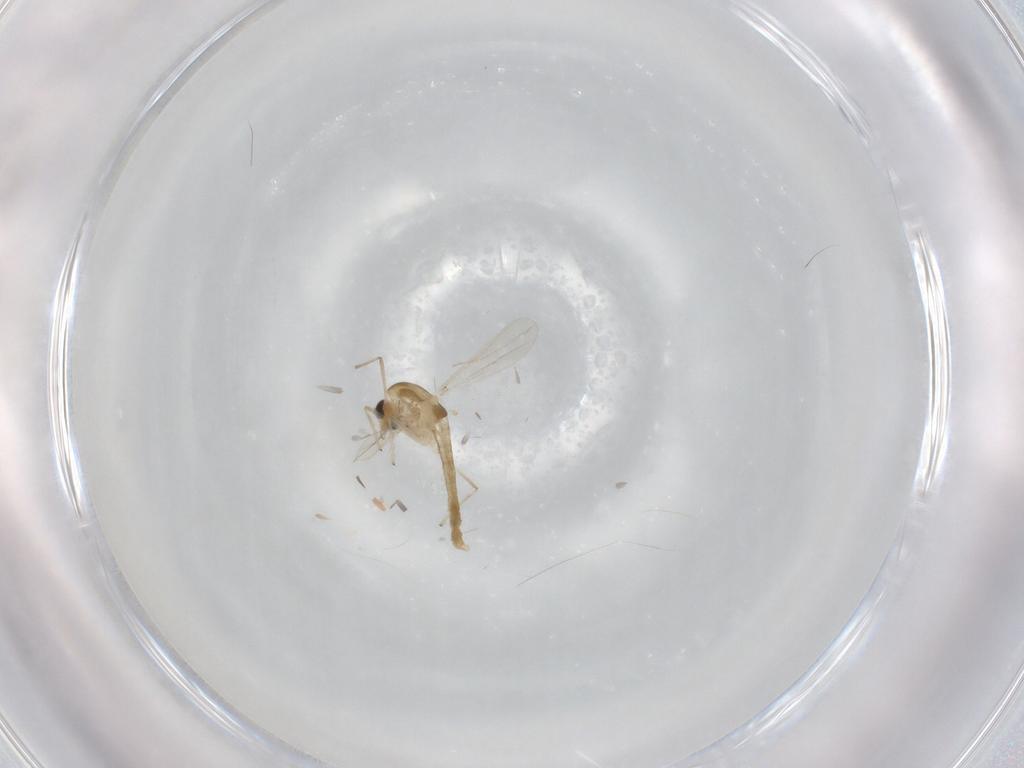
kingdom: Animalia
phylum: Arthropoda
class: Insecta
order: Diptera
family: Chironomidae
